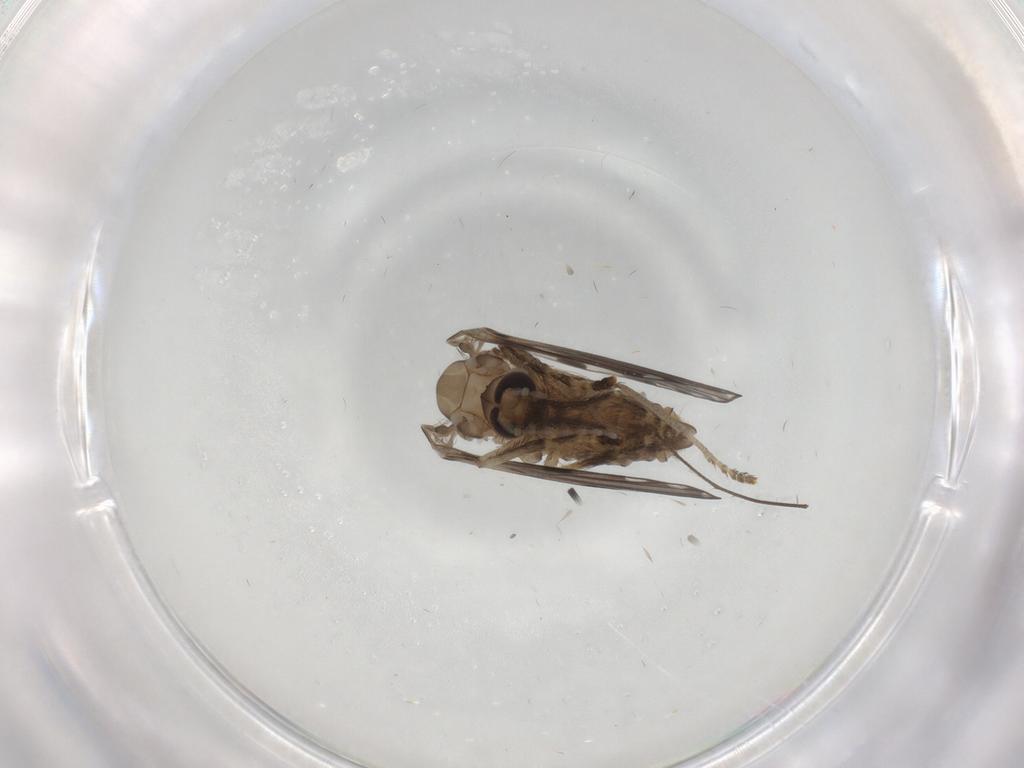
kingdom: Animalia
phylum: Arthropoda
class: Insecta
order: Diptera
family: Psychodidae
